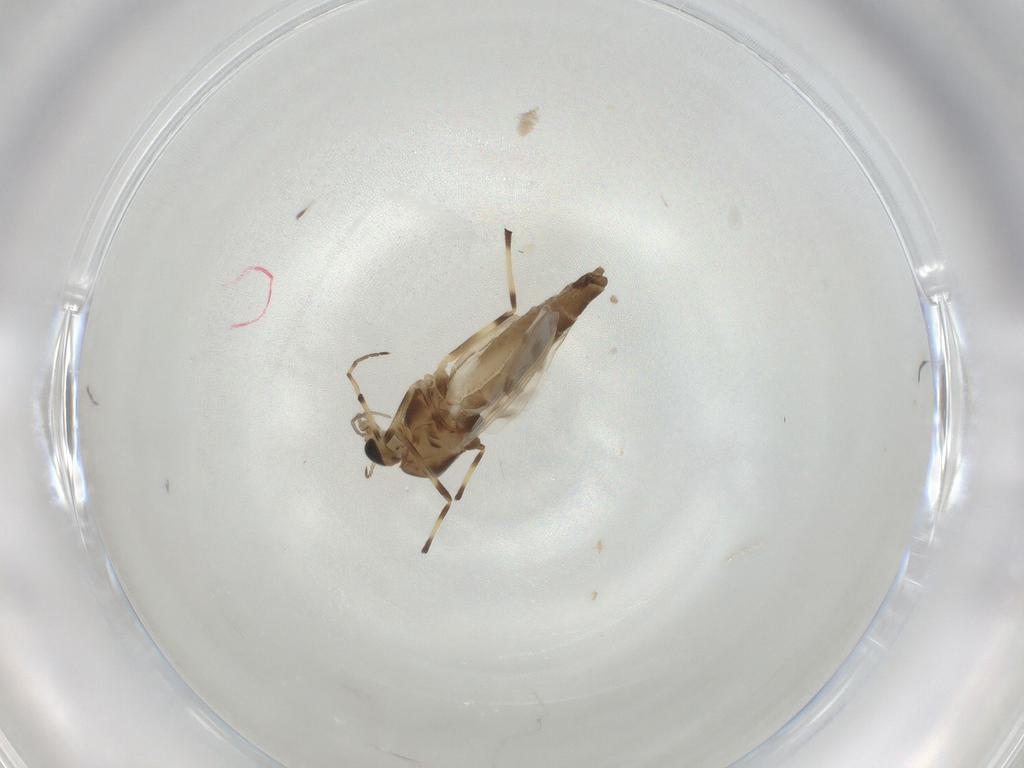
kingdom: Animalia
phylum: Arthropoda
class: Insecta
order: Diptera
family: Chironomidae
